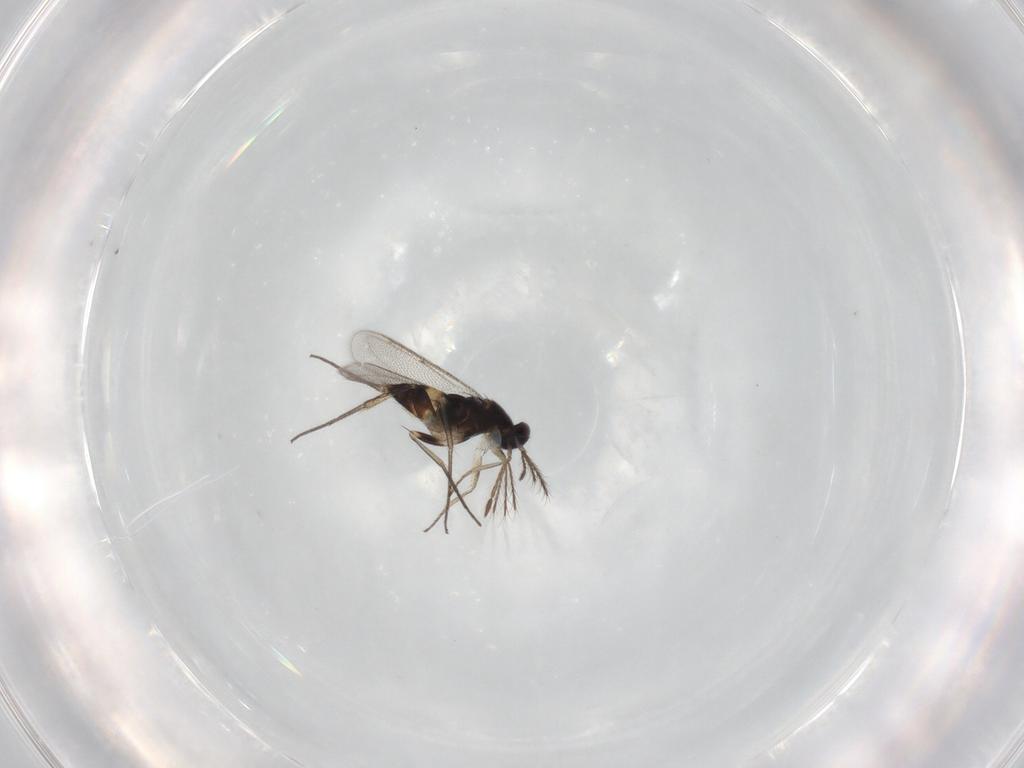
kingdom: Animalia
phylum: Arthropoda
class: Insecta
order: Hymenoptera
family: Eulophidae
